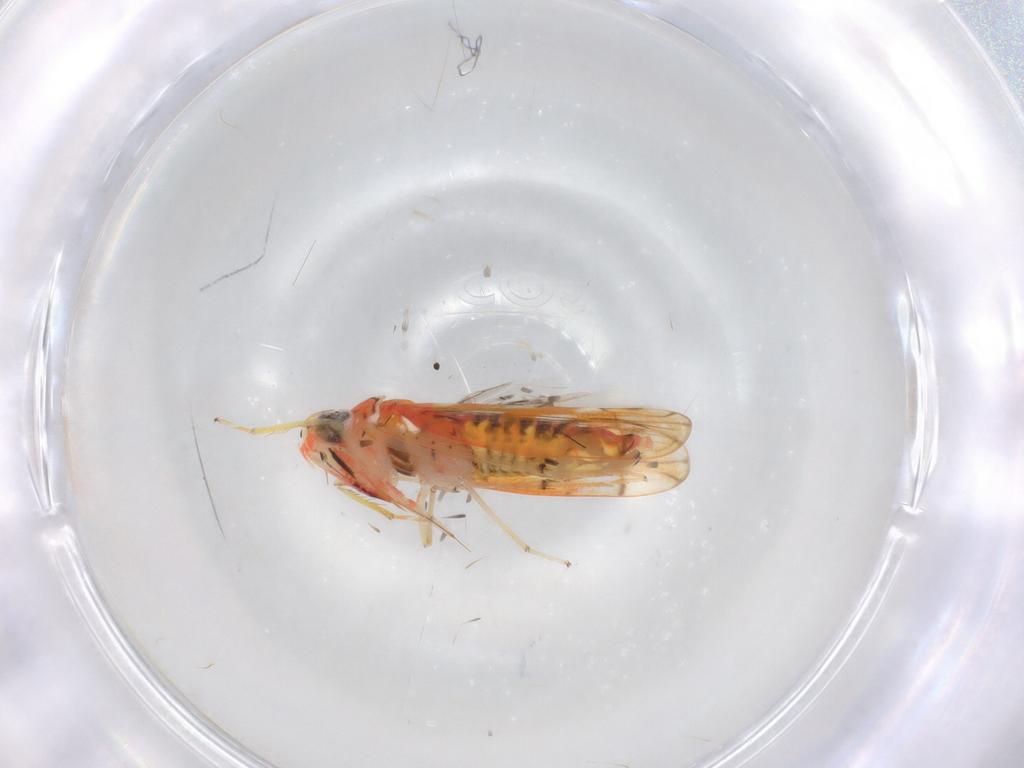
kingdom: Animalia
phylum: Arthropoda
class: Insecta
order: Hemiptera
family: Cicadellidae
